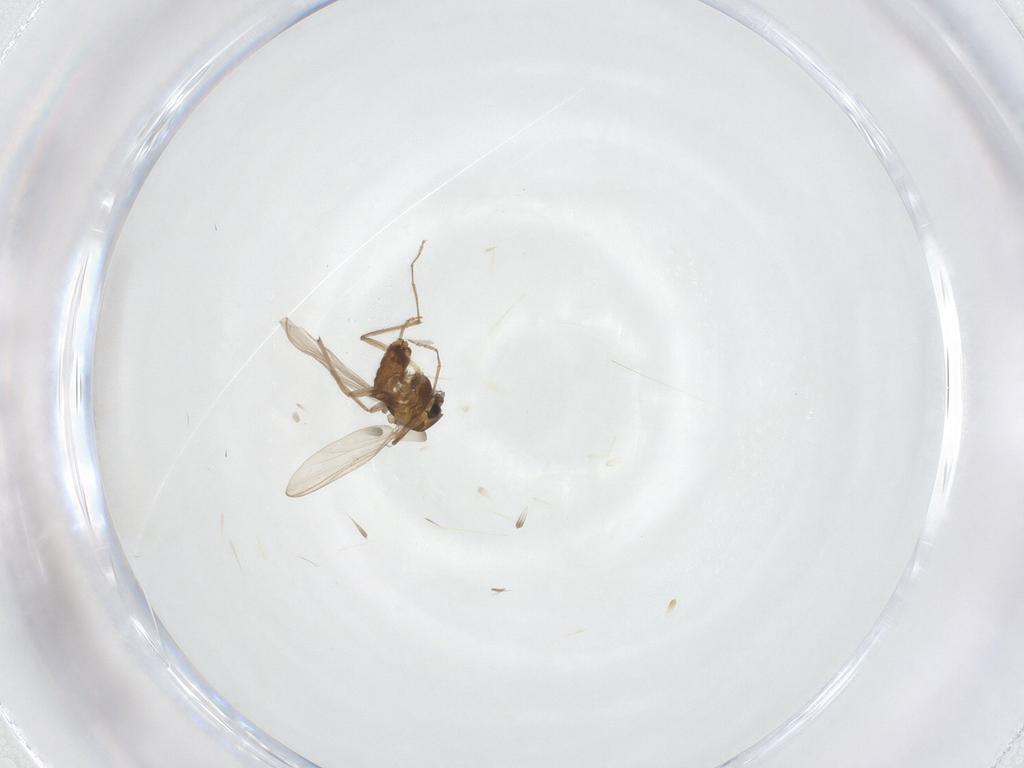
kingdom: Animalia
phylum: Arthropoda
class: Insecta
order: Diptera
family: Chironomidae
